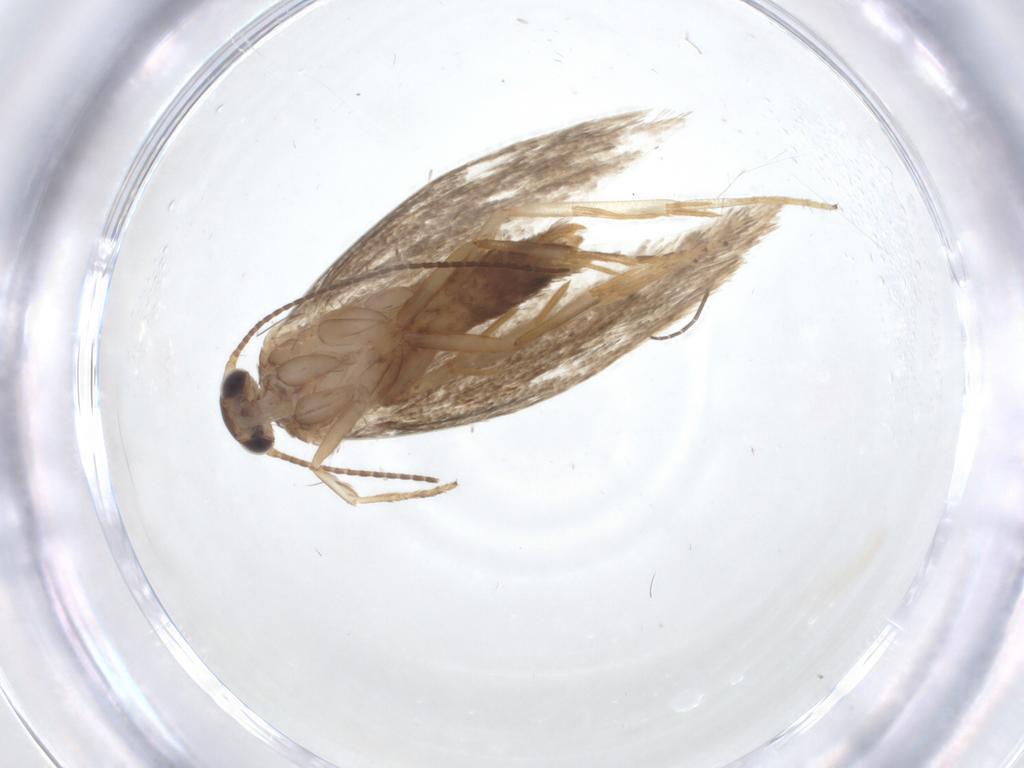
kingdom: Animalia
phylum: Arthropoda
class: Insecta
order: Lepidoptera
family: Oecophoridae
